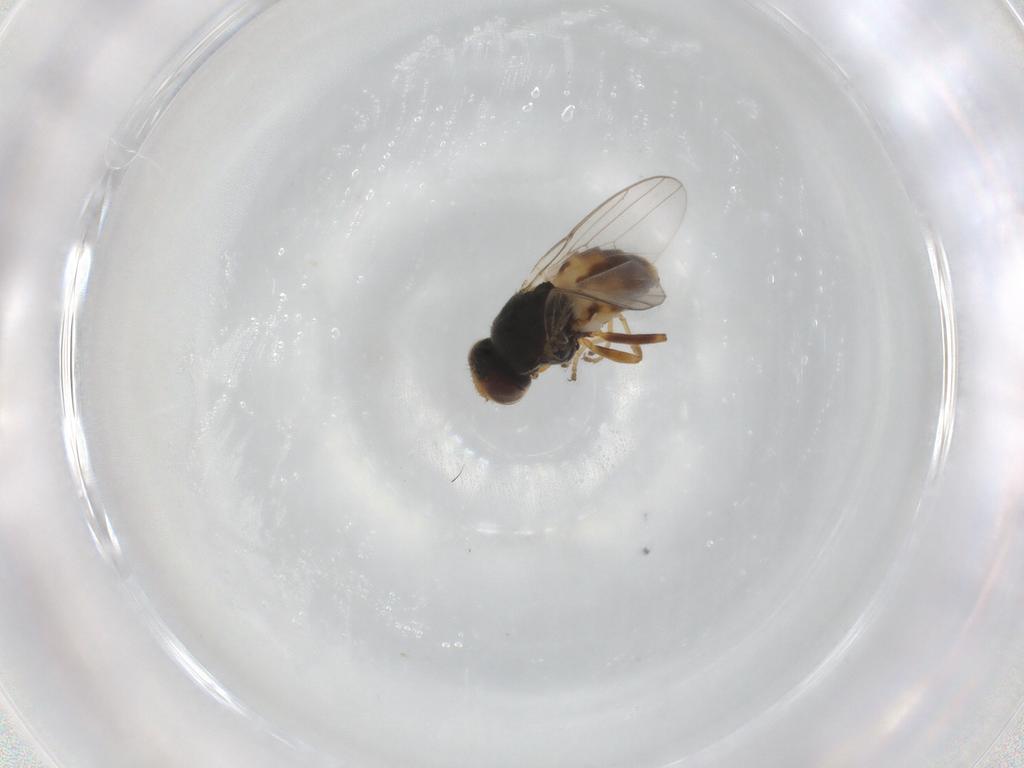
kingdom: Animalia
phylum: Arthropoda
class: Insecta
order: Diptera
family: Chloropidae
